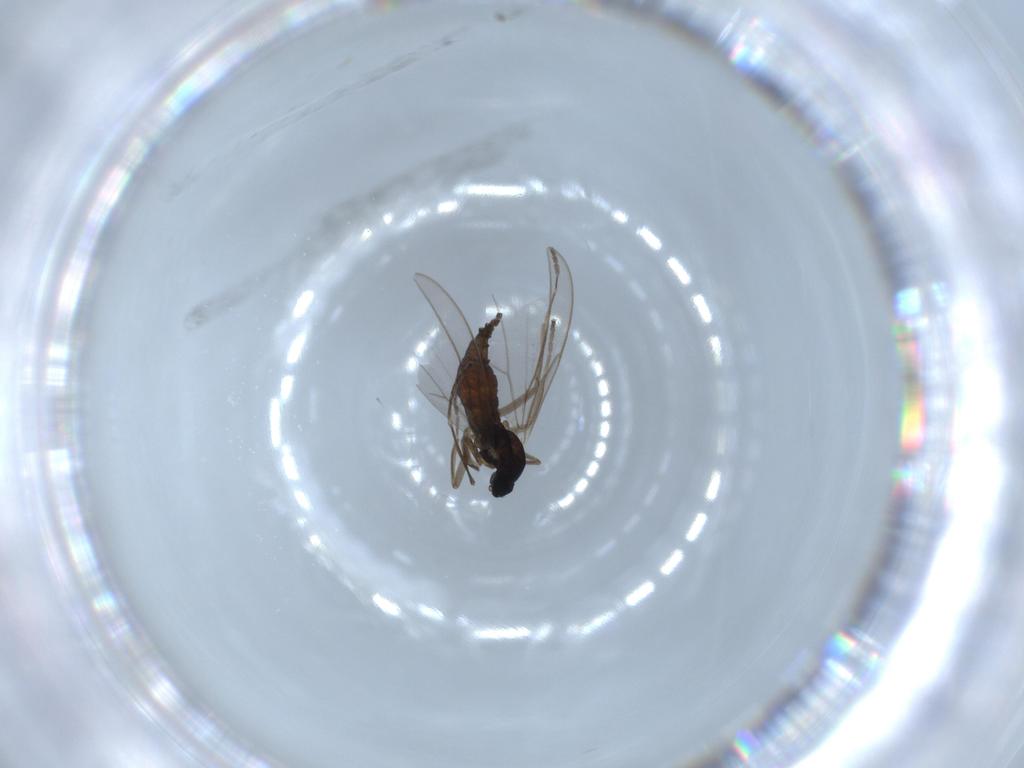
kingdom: Animalia
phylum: Arthropoda
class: Insecta
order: Diptera
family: Cecidomyiidae
